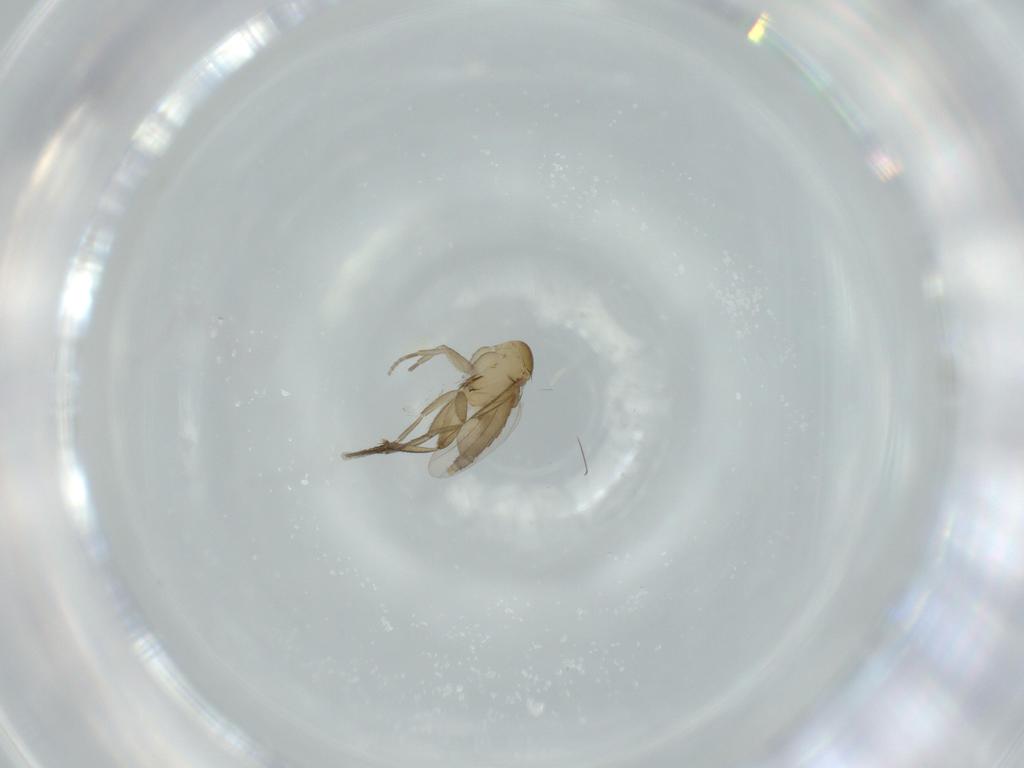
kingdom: Animalia
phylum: Arthropoda
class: Insecta
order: Diptera
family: Phoridae
